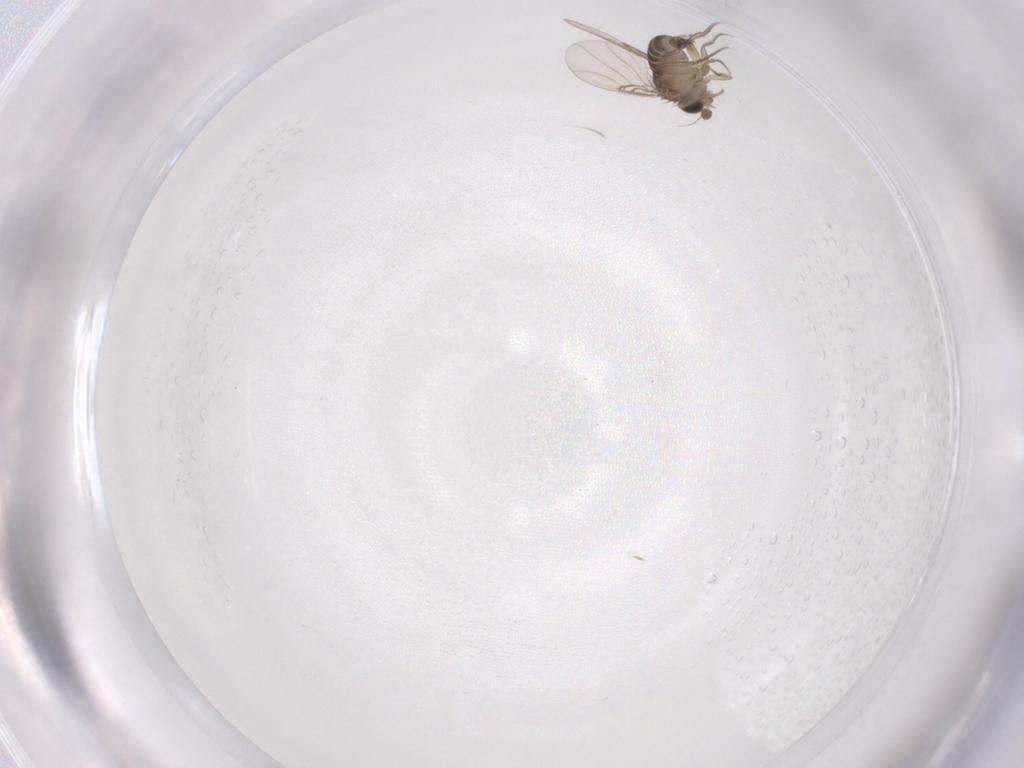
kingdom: Animalia
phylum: Arthropoda
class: Insecta
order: Diptera
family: Phoridae
